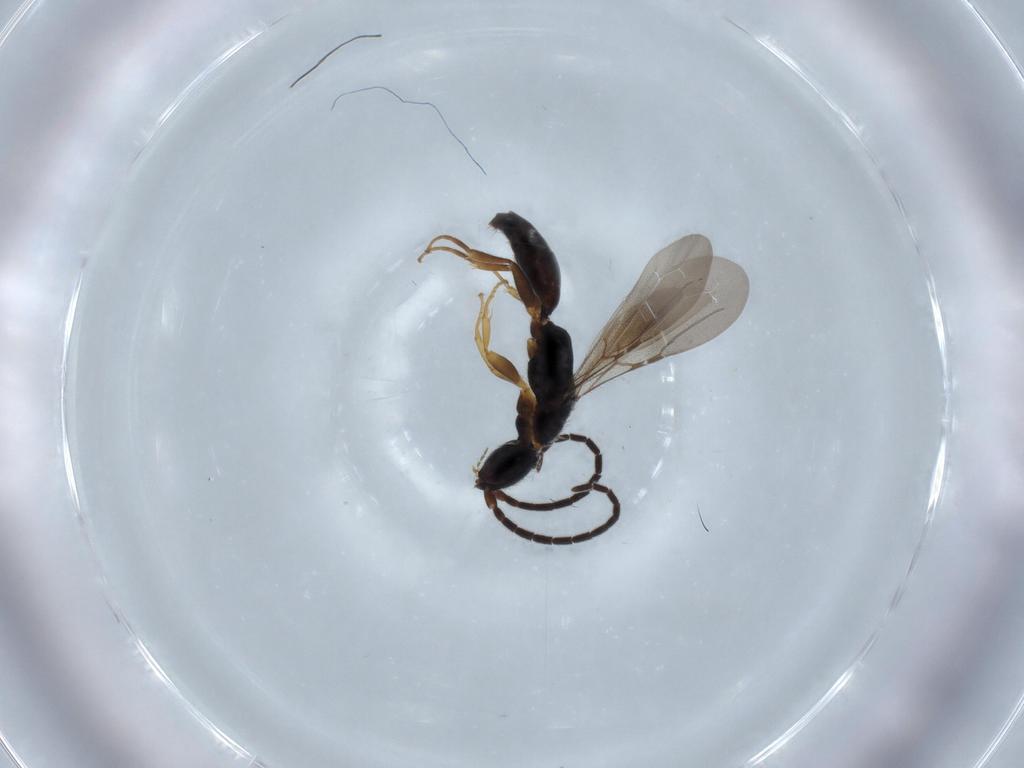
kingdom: Animalia
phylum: Arthropoda
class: Insecta
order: Hymenoptera
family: Bethylidae
